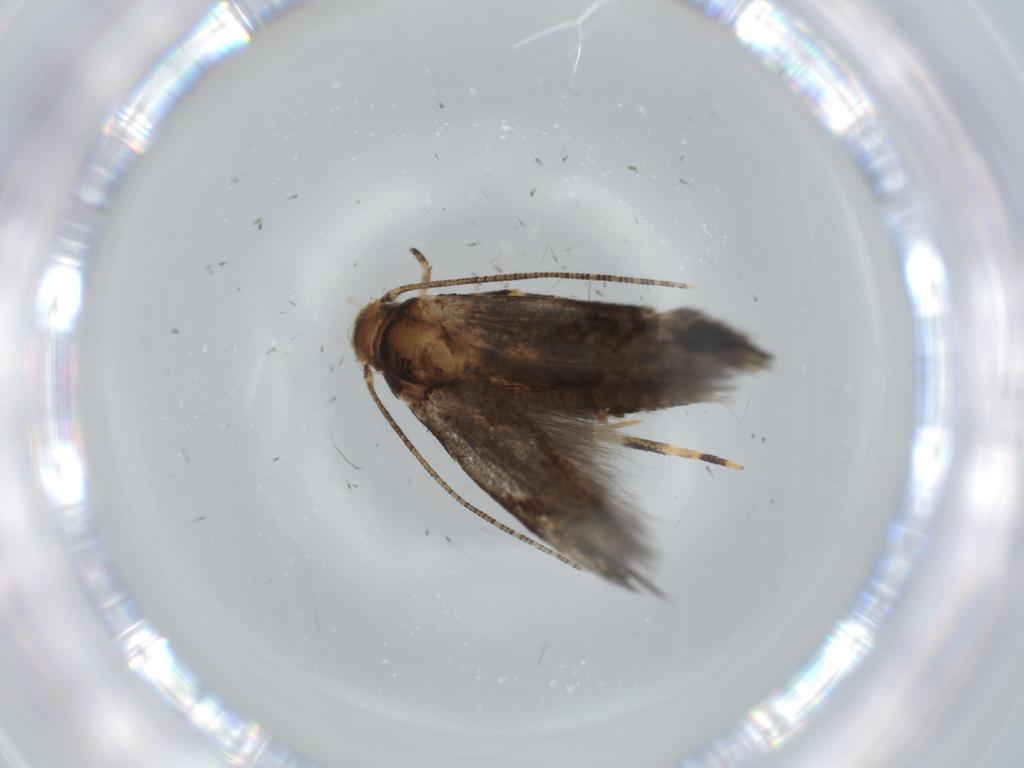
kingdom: Animalia
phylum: Arthropoda
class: Insecta
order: Lepidoptera
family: Momphidae
